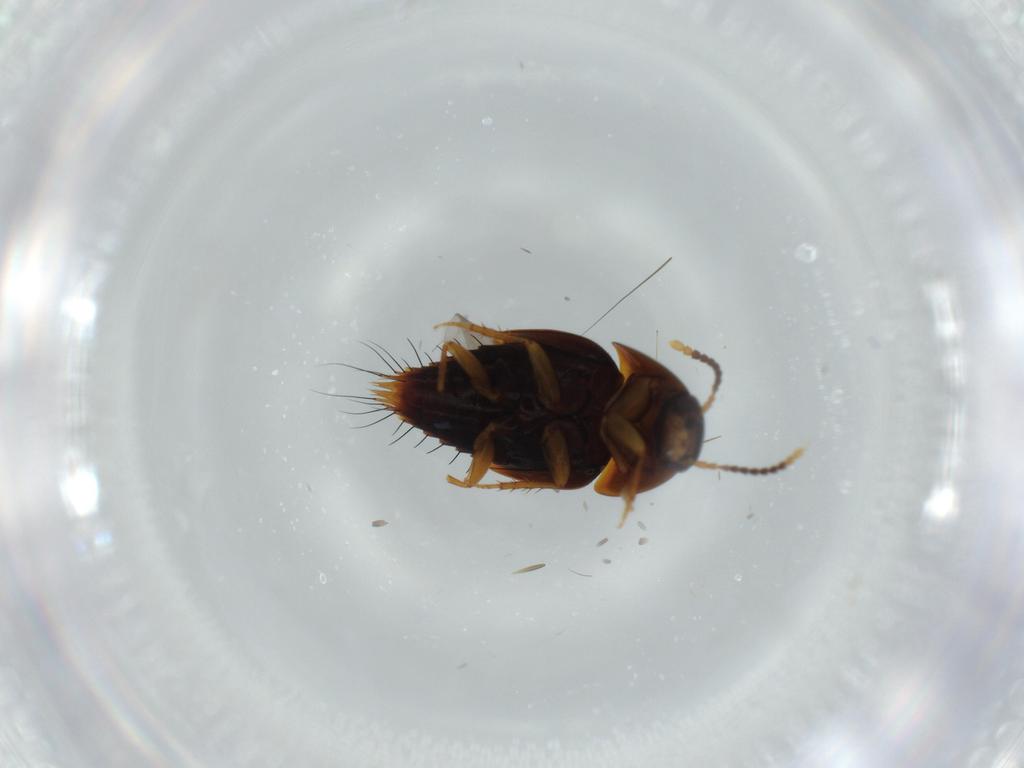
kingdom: Animalia
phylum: Arthropoda
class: Insecta
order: Coleoptera
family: Staphylinidae
